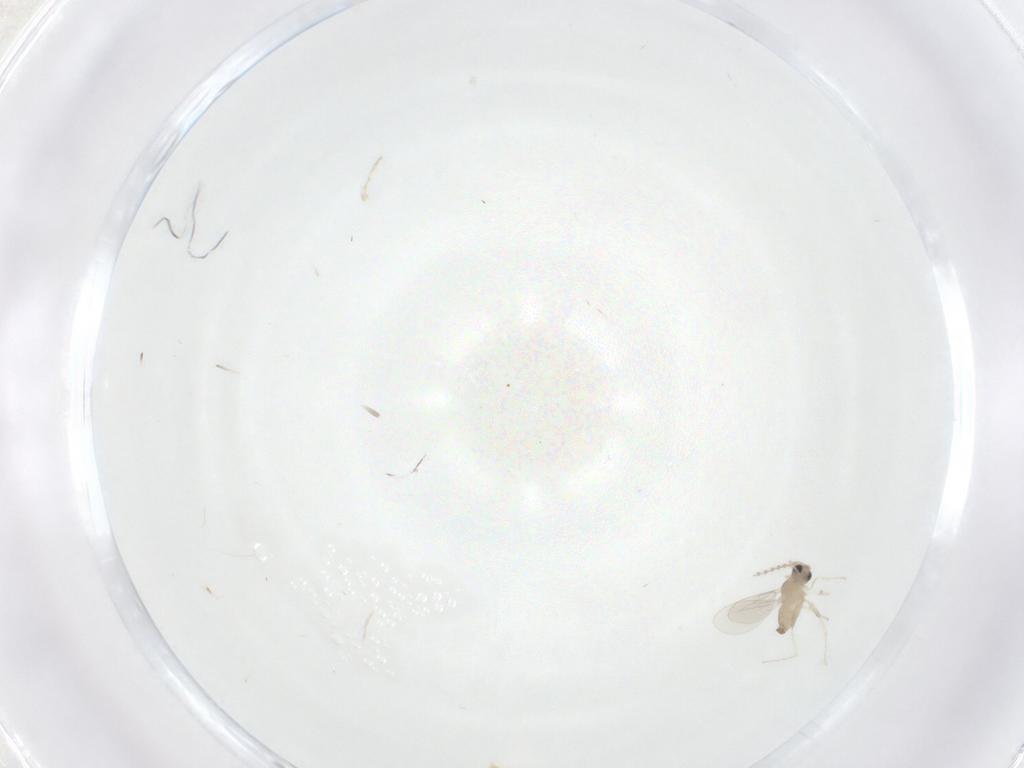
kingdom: Animalia
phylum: Arthropoda
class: Insecta
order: Diptera
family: Cecidomyiidae
